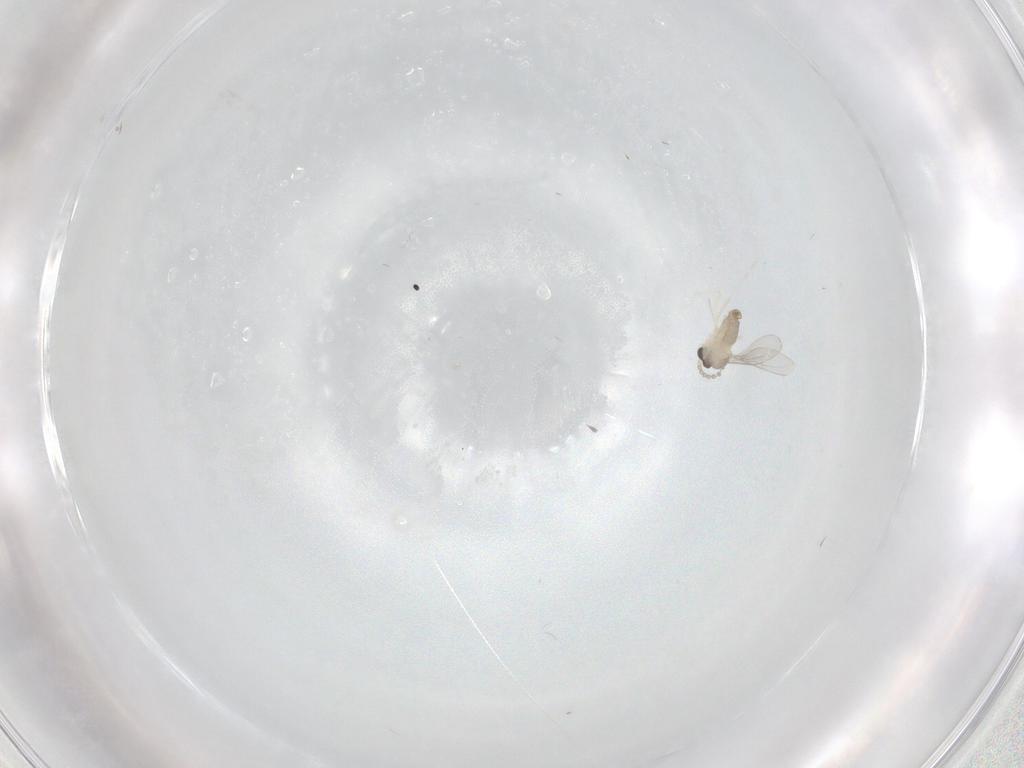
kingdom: Animalia
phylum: Arthropoda
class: Insecta
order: Diptera
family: Cecidomyiidae
